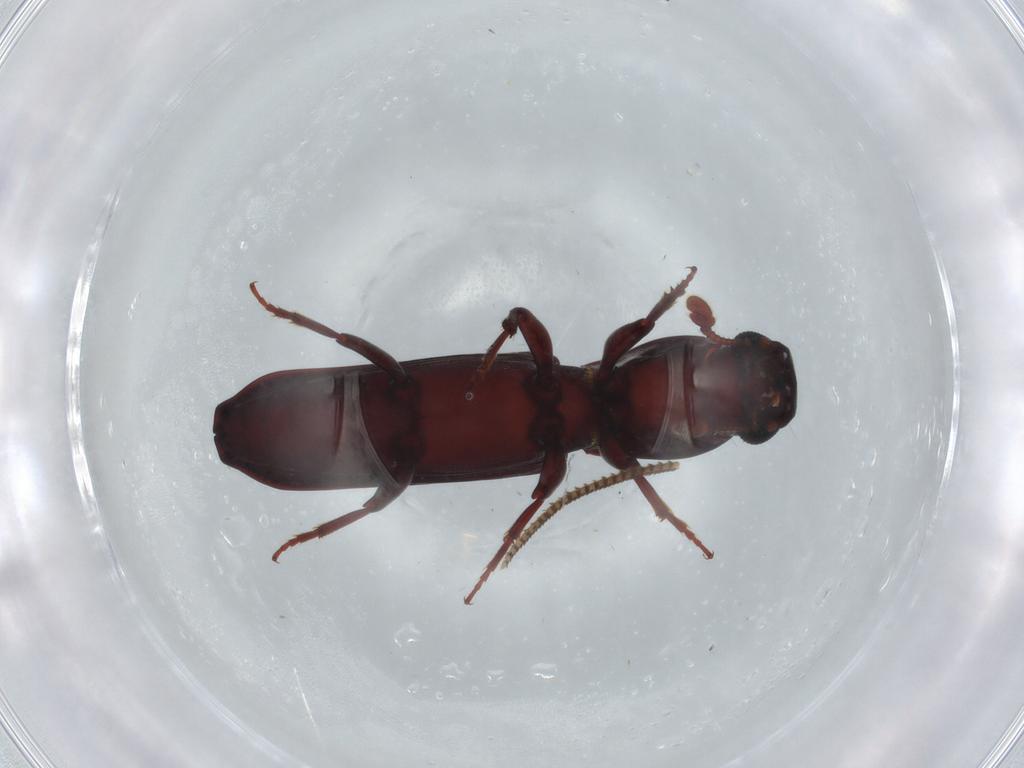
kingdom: Animalia
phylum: Arthropoda
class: Insecta
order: Coleoptera
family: Bothrideridae
